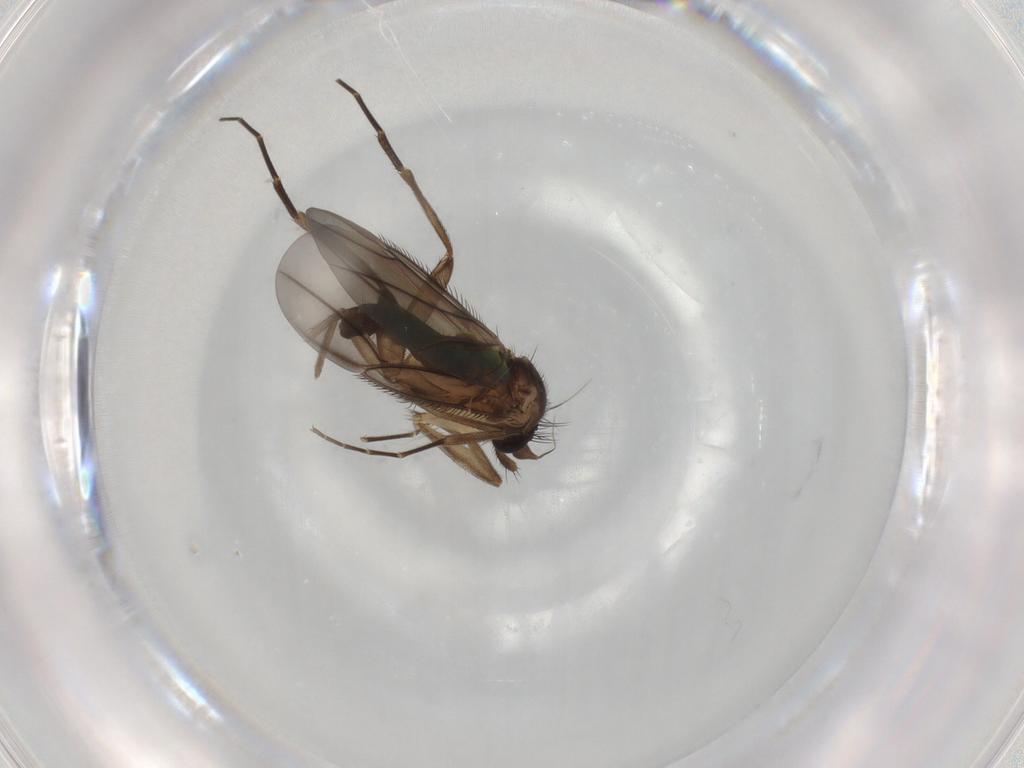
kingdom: Animalia
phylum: Arthropoda
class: Insecta
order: Diptera
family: Phoridae
